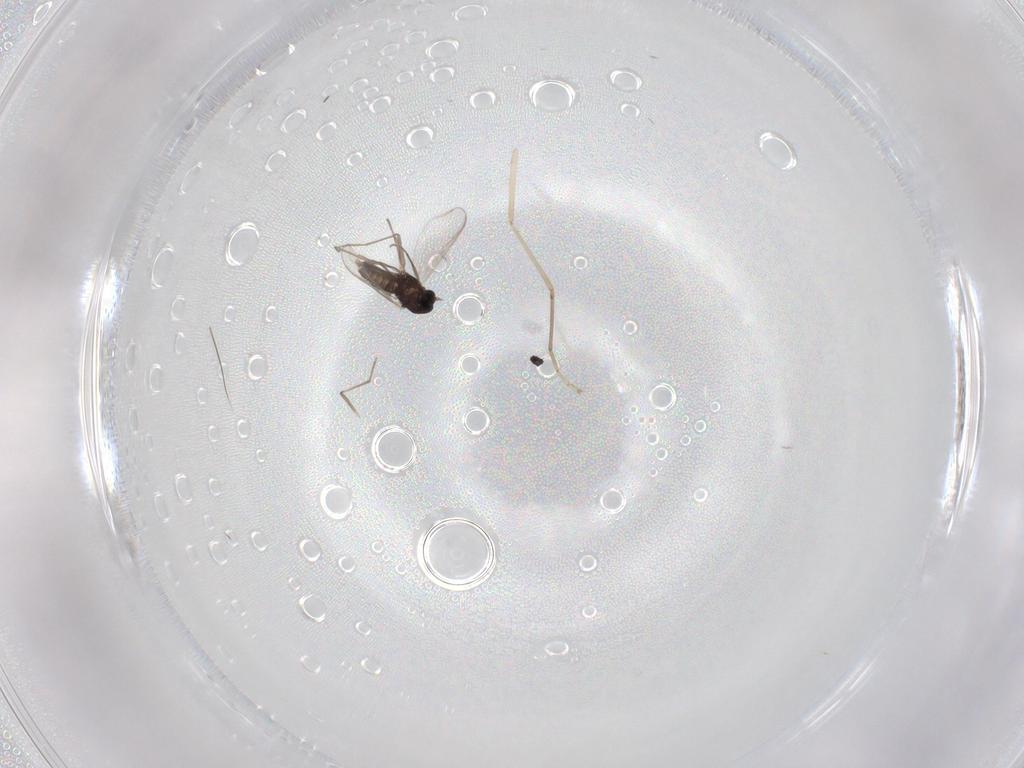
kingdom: Animalia
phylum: Arthropoda
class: Insecta
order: Diptera
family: Chironomidae
